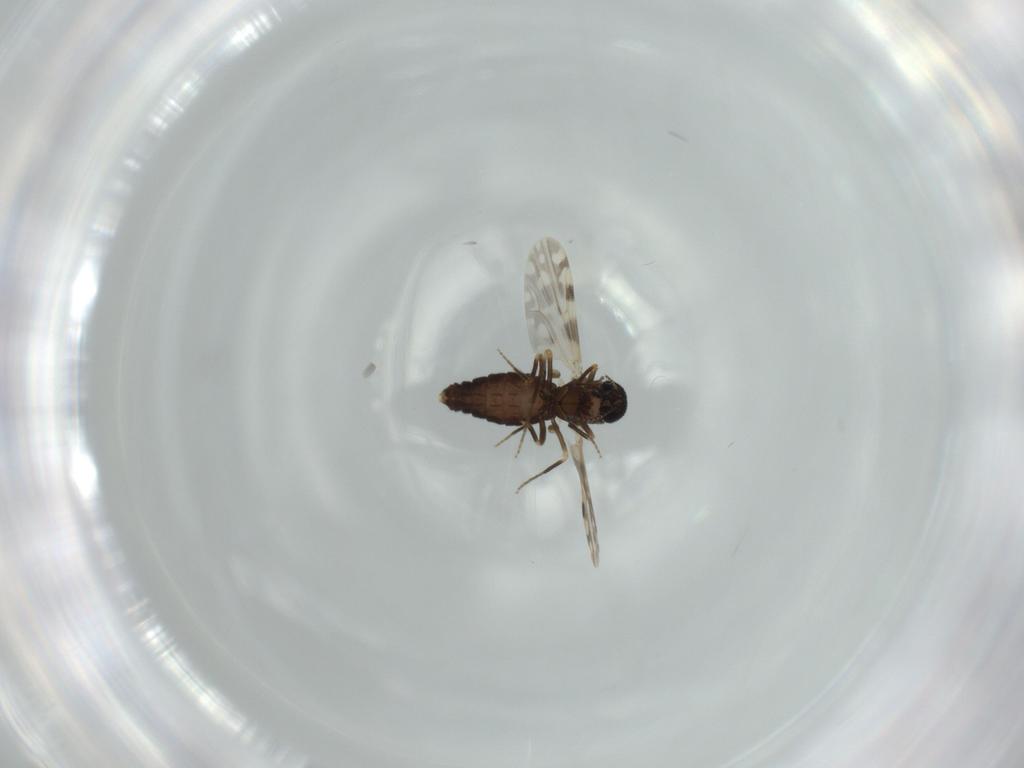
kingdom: Animalia
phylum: Arthropoda
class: Insecta
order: Diptera
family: Ceratopogonidae
